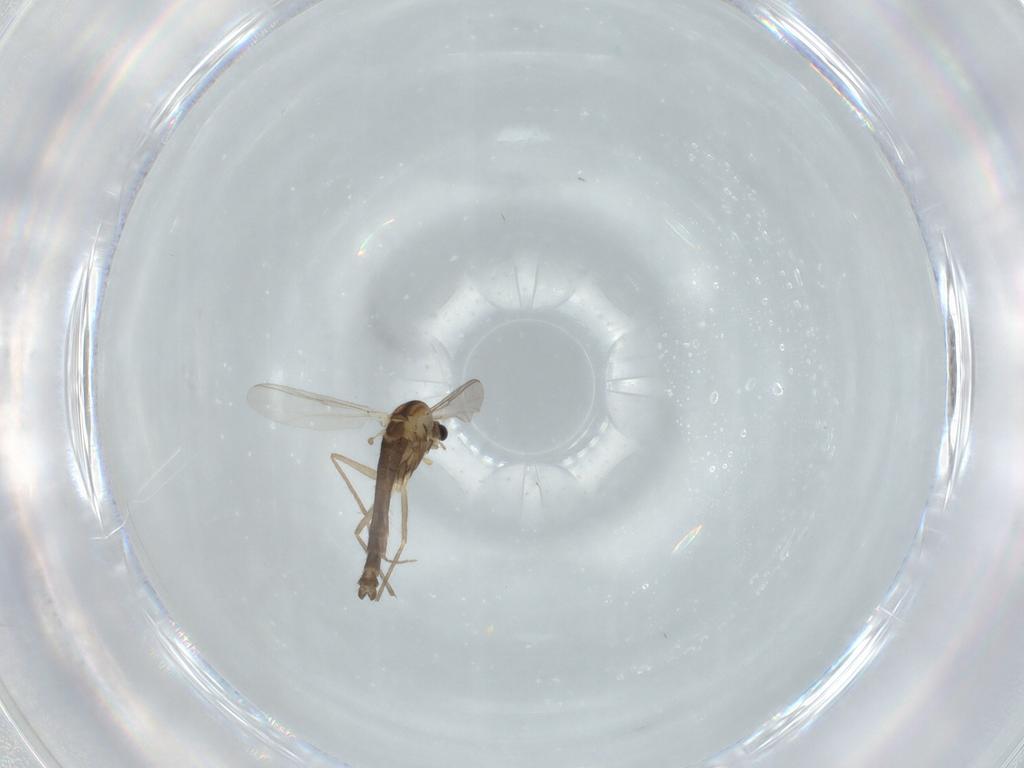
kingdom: Animalia
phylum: Arthropoda
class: Insecta
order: Diptera
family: Chironomidae
